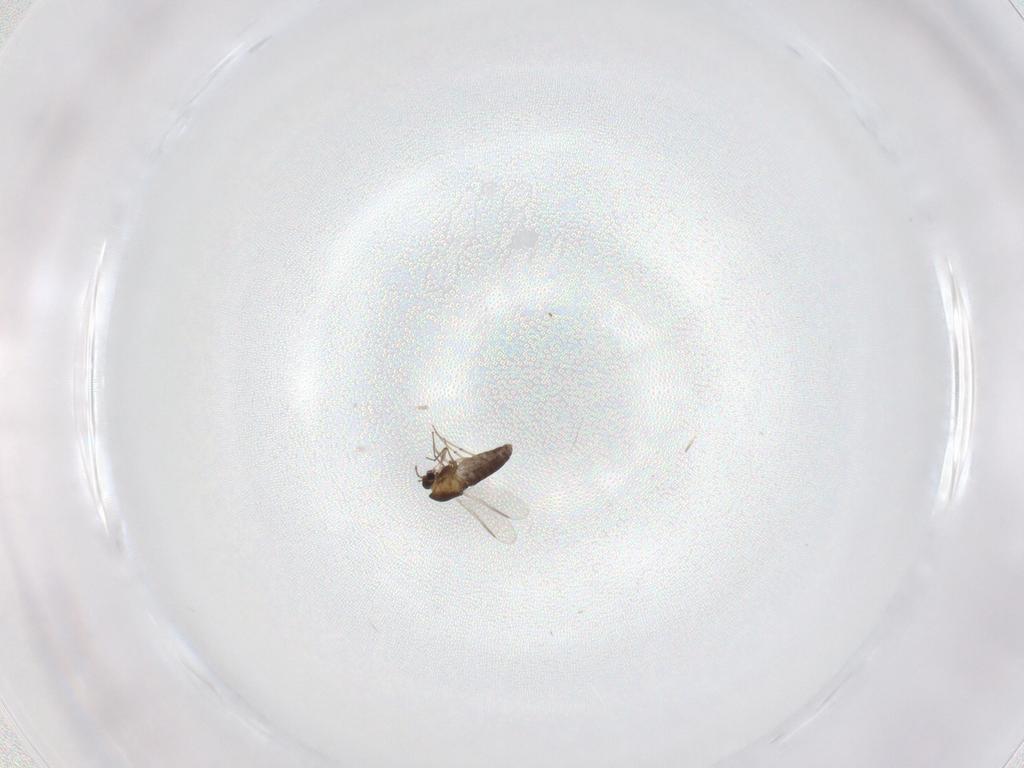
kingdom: Animalia
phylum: Arthropoda
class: Insecta
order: Diptera
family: Chironomidae
